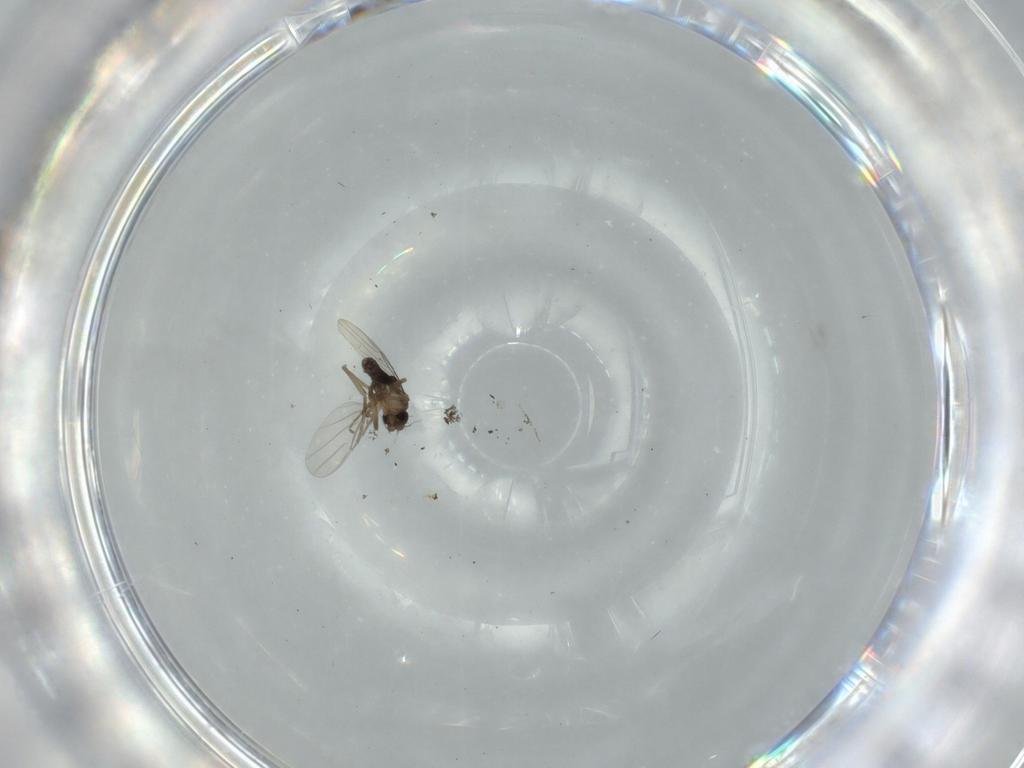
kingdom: Animalia
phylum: Arthropoda
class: Insecta
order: Diptera
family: Phoridae
